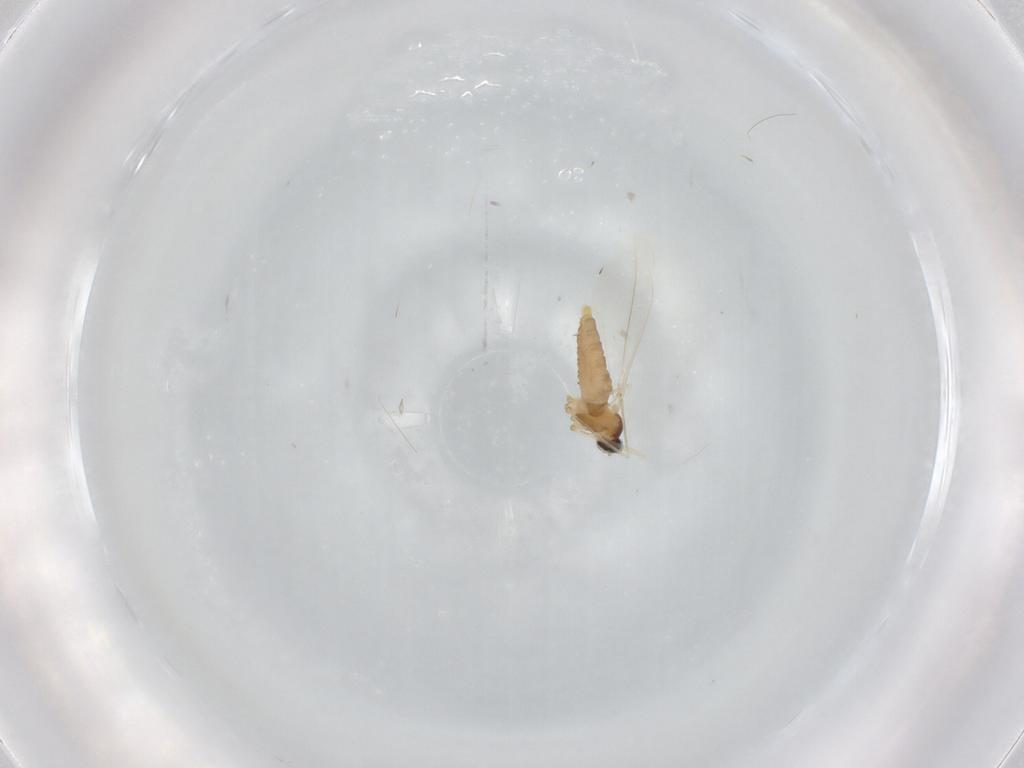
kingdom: Animalia
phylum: Arthropoda
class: Insecta
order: Diptera
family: Cecidomyiidae
